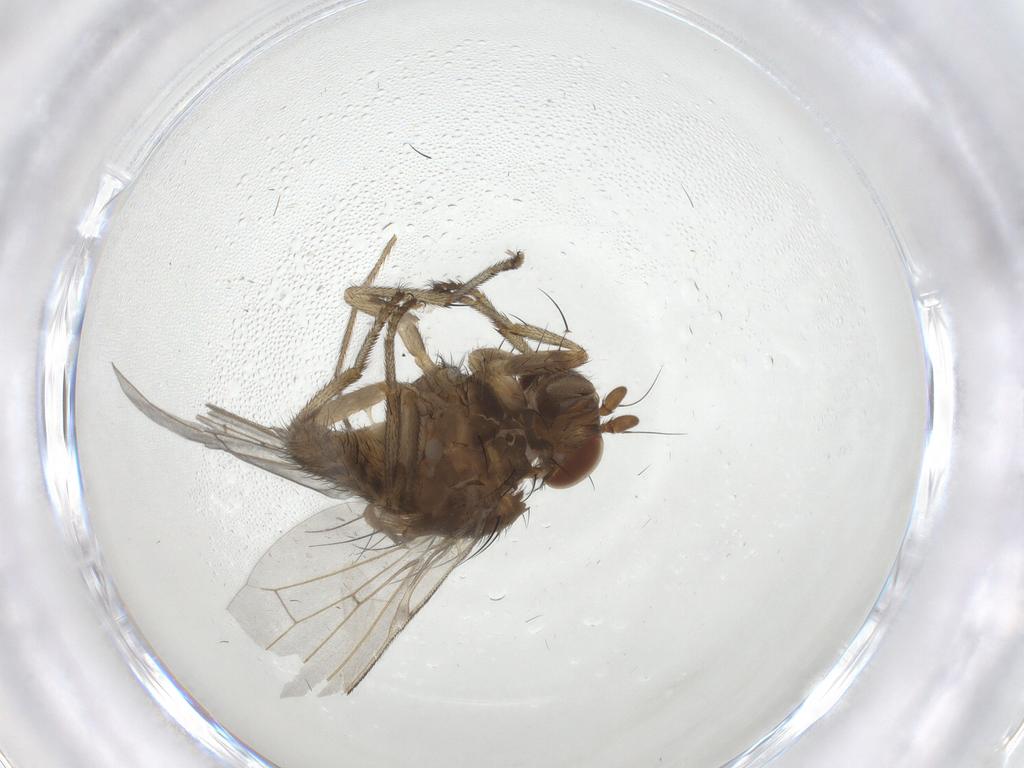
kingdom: Animalia
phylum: Arthropoda
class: Insecta
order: Diptera
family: Lauxaniidae
